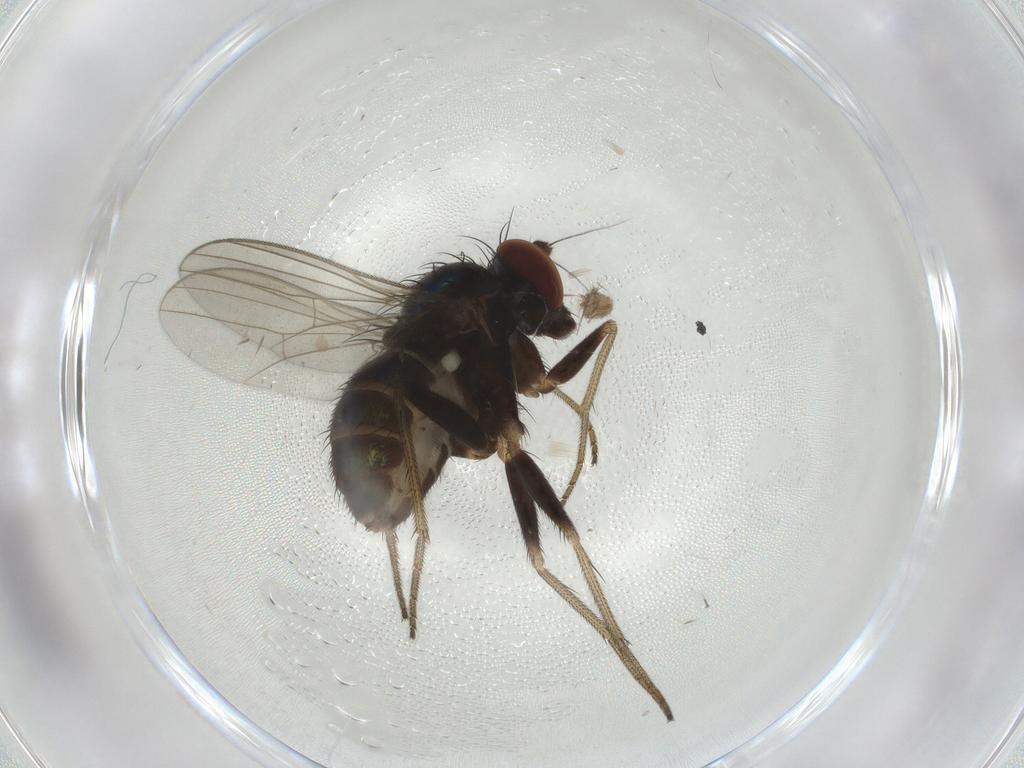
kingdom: Animalia
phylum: Arthropoda
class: Insecta
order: Diptera
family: Dolichopodidae
